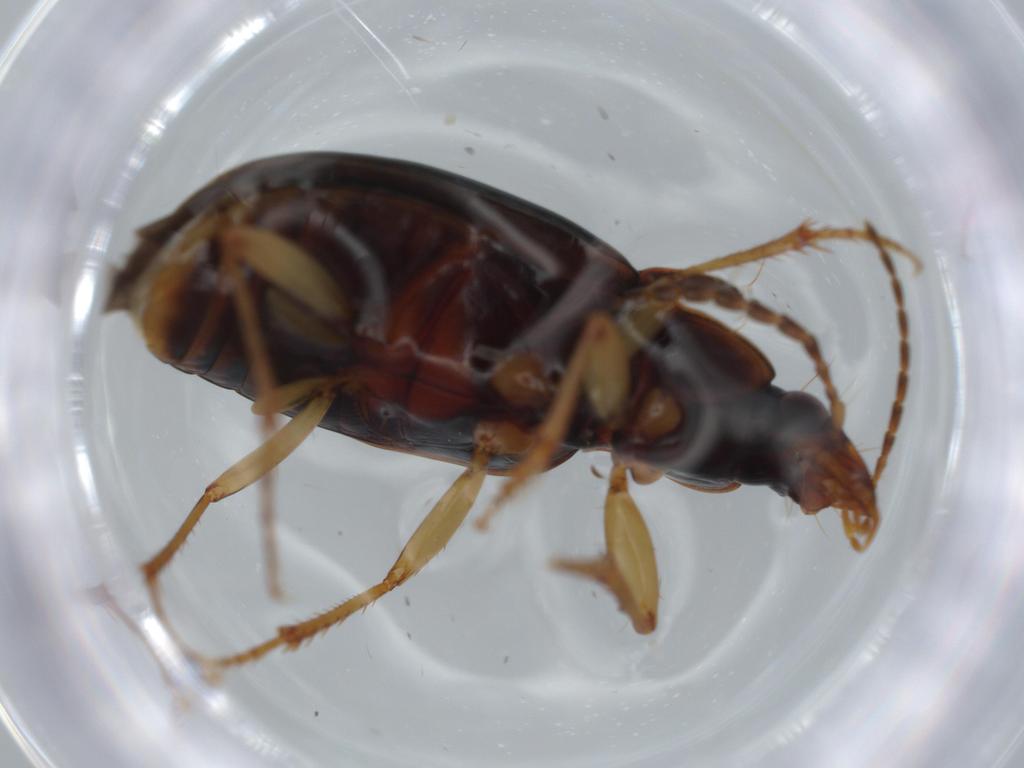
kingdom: Animalia
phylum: Arthropoda
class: Insecta
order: Coleoptera
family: Carabidae
